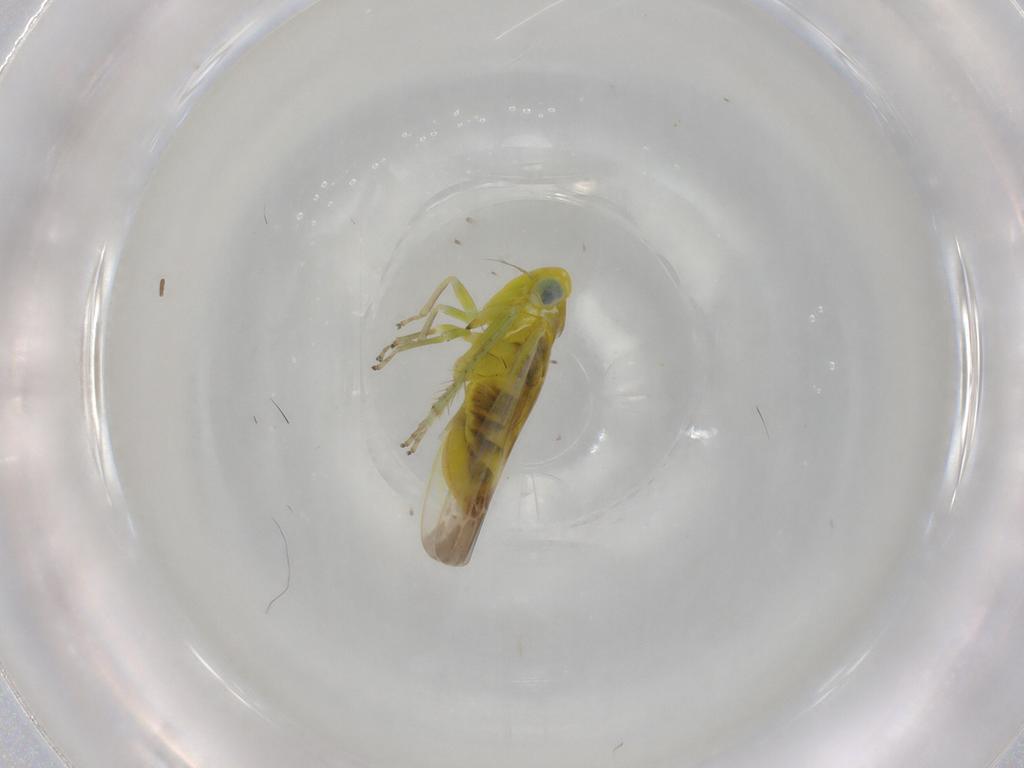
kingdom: Animalia
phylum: Arthropoda
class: Insecta
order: Hemiptera
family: Cicadellidae
